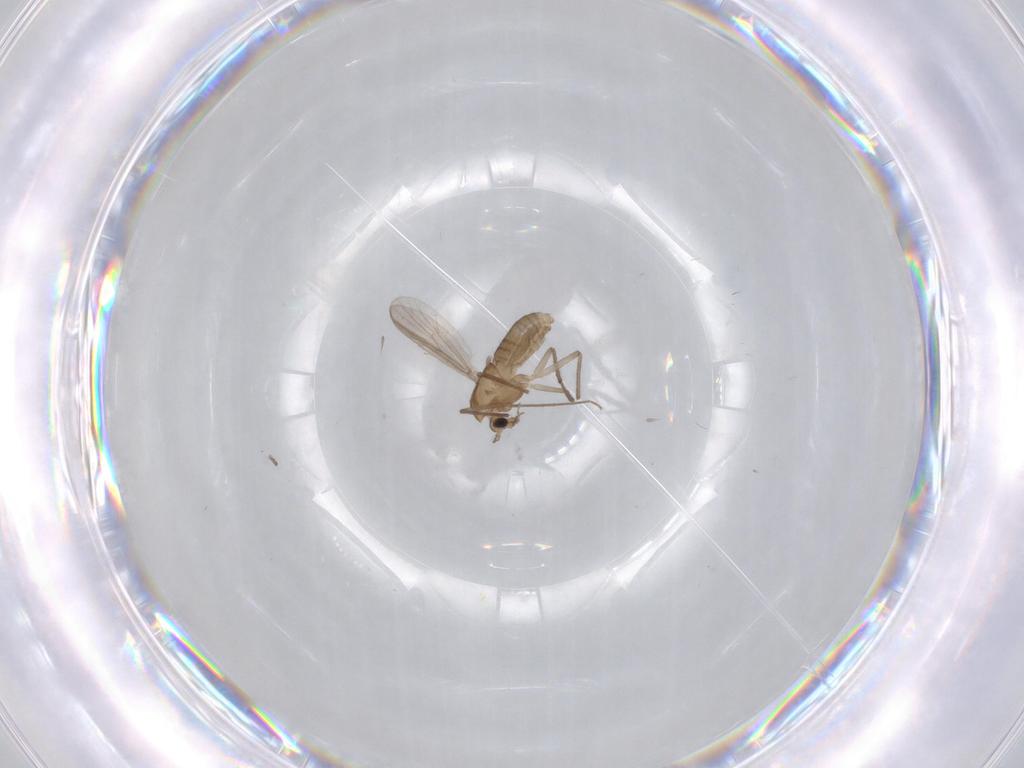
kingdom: Animalia
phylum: Arthropoda
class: Insecta
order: Diptera
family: Chironomidae
